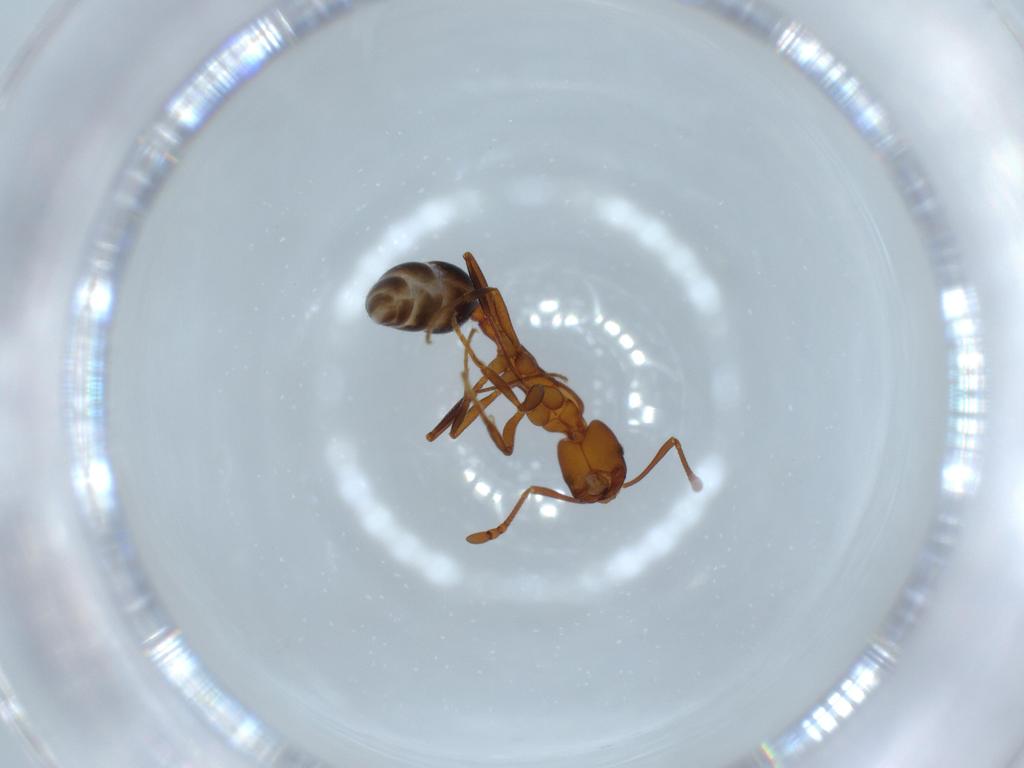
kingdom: Animalia
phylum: Arthropoda
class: Insecta
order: Hymenoptera
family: Formicidae
